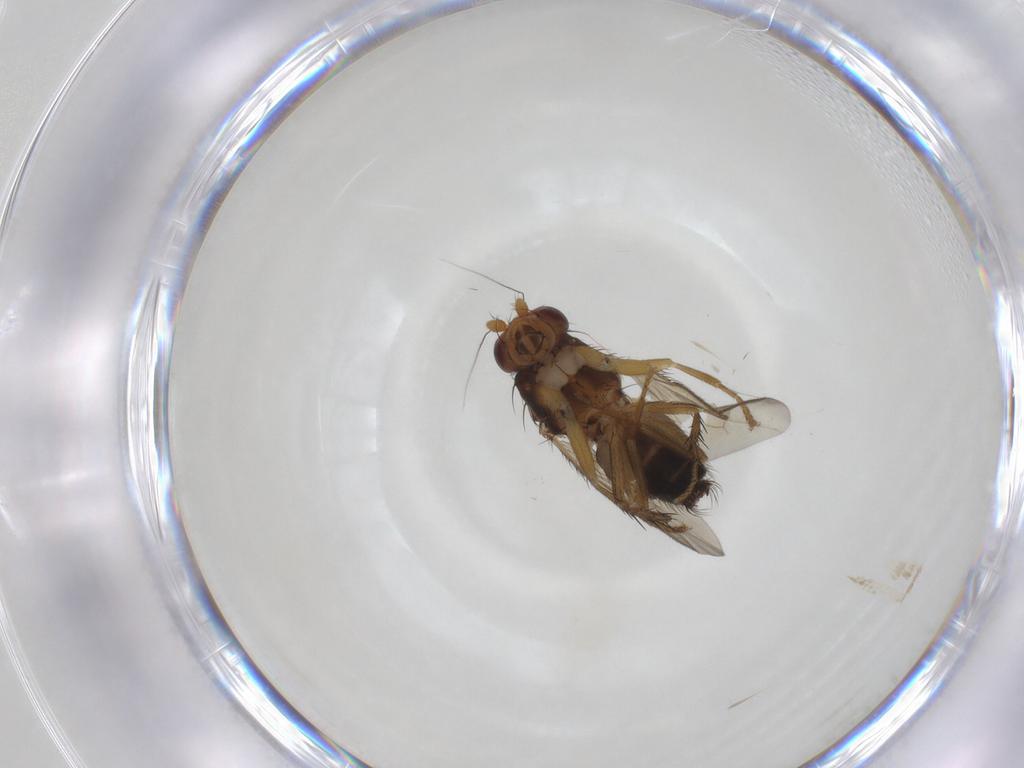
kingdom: Animalia
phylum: Arthropoda
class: Insecta
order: Diptera
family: Sphaeroceridae
